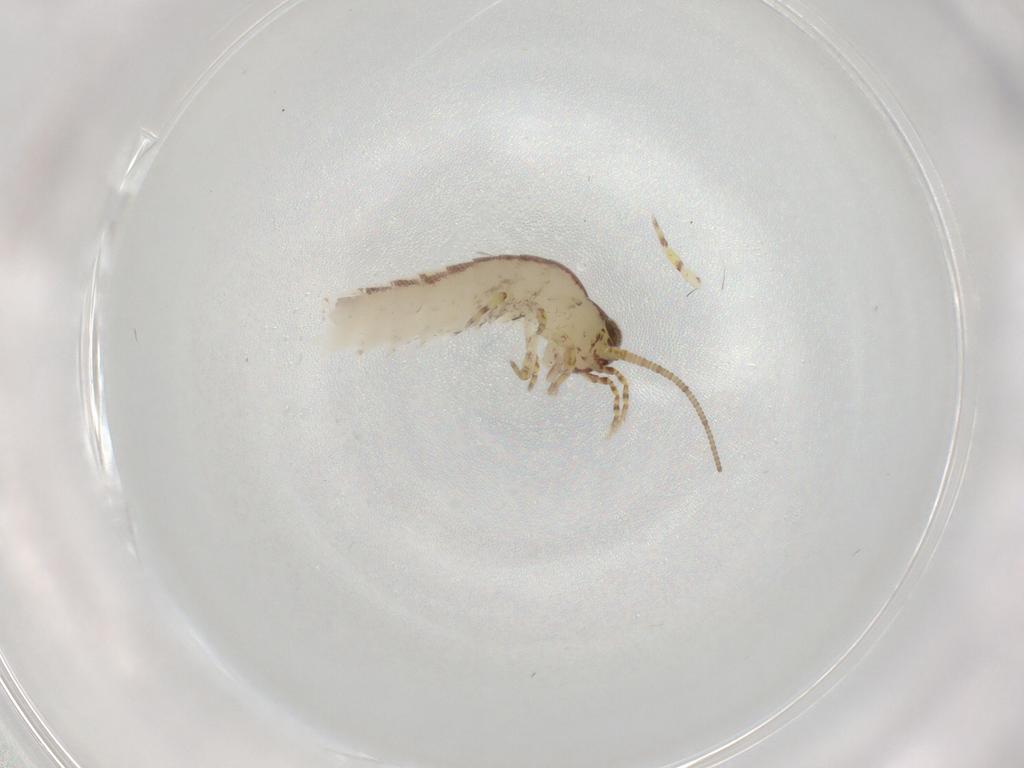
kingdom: Animalia
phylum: Arthropoda
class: Insecta
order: Archaeognatha
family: Machilidae
